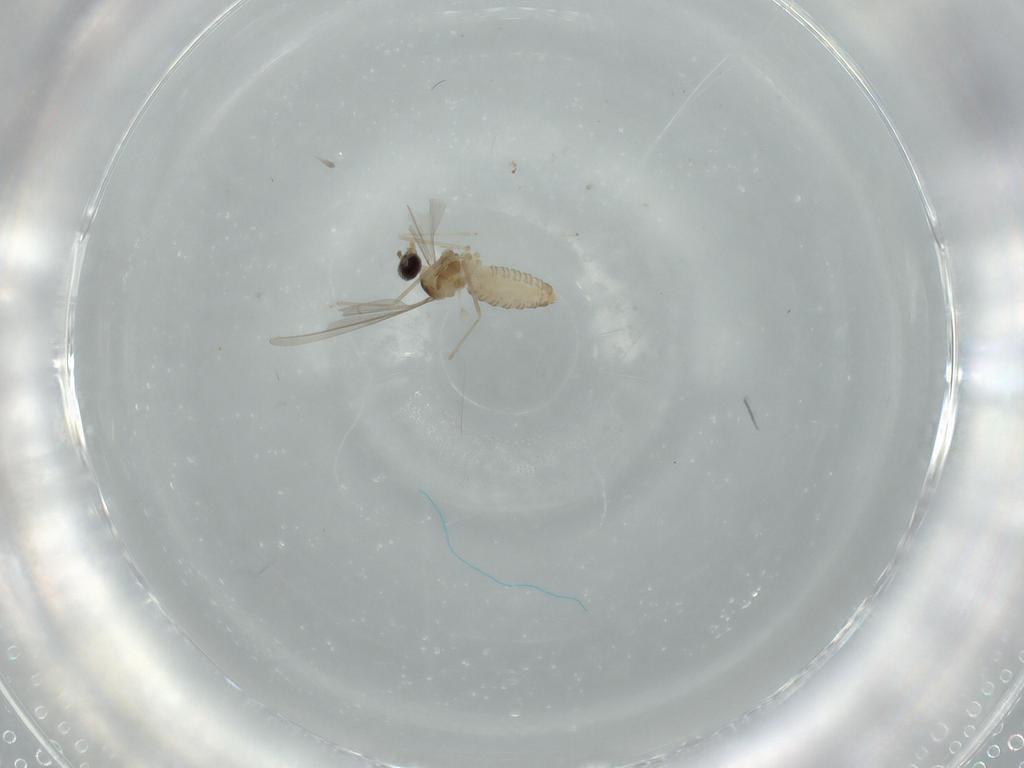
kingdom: Animalia
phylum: Arthropoda
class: Insecta
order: Diptera
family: Cecidomyiidae
